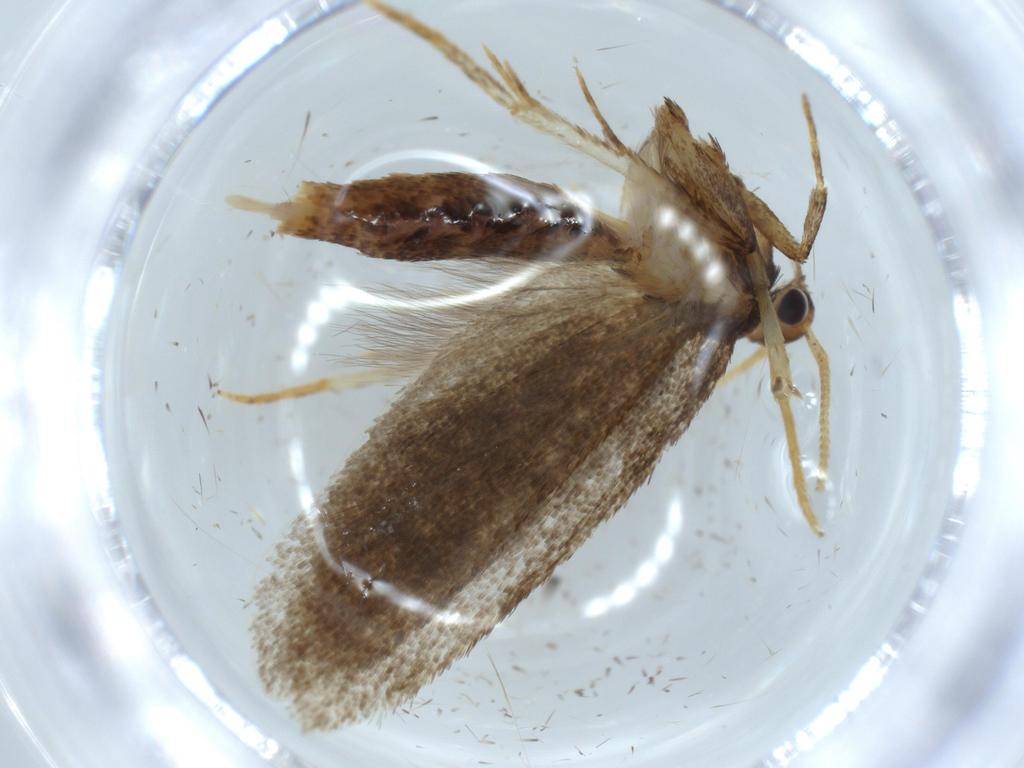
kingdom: Animalia
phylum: Arthropoda
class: Insecta
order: Lepidoptera
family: Lecithoceridae
